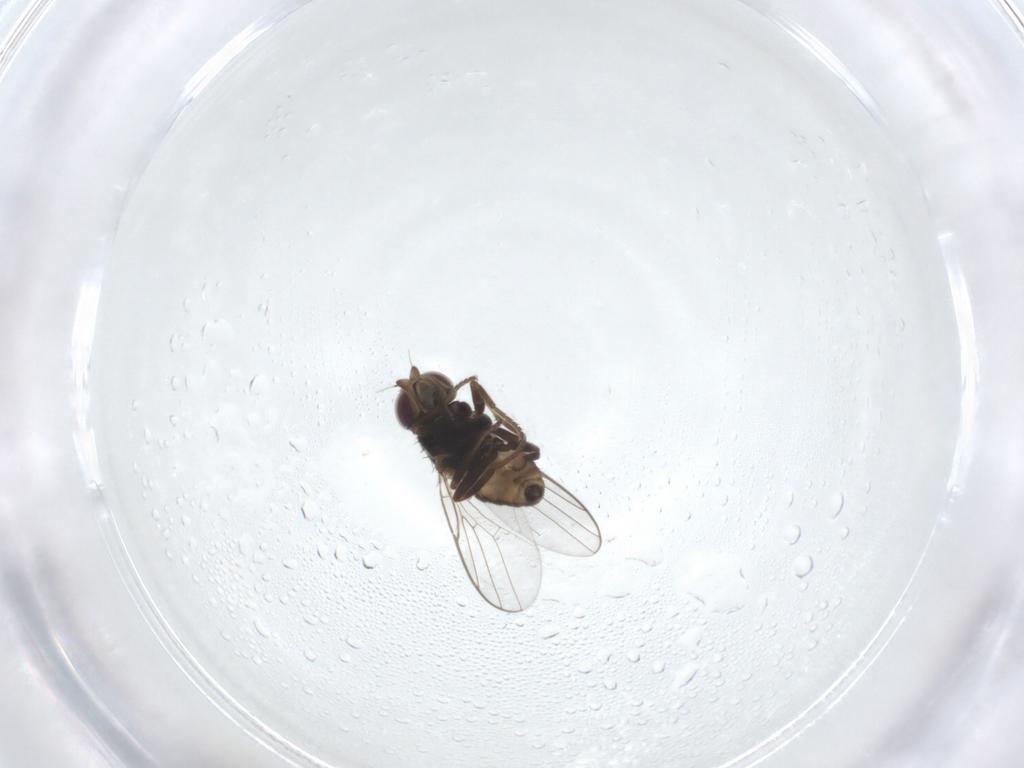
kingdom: Animalia
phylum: Arthropoda
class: Insecta
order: Diptera
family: Chloropidae
